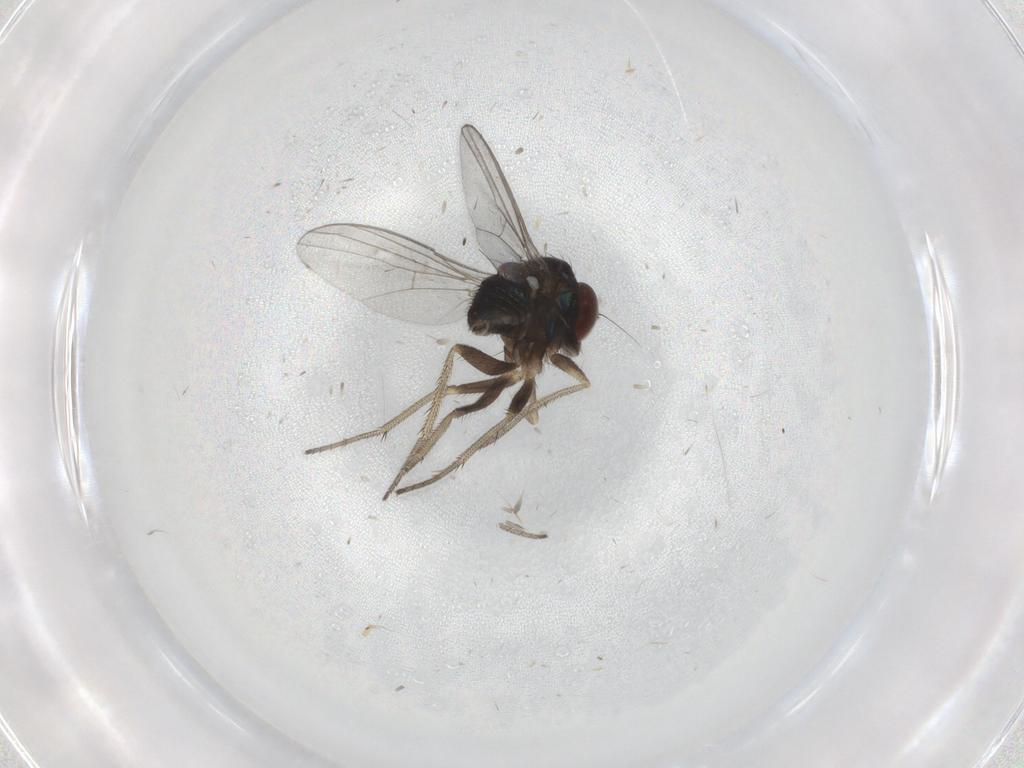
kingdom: Animalia
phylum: Arthropoda
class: Insecta
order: Diptera
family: Chironomidae
